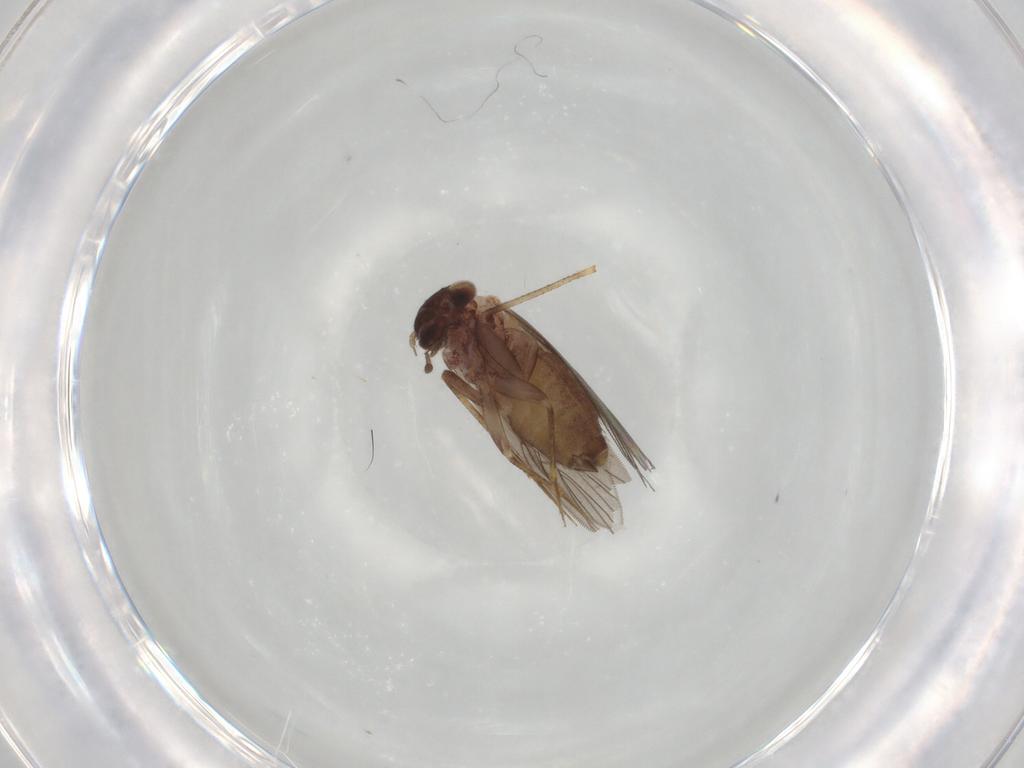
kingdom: Animalia
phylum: Arthropoda
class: Insecta
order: Psocodea
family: Lepidopsocidae
